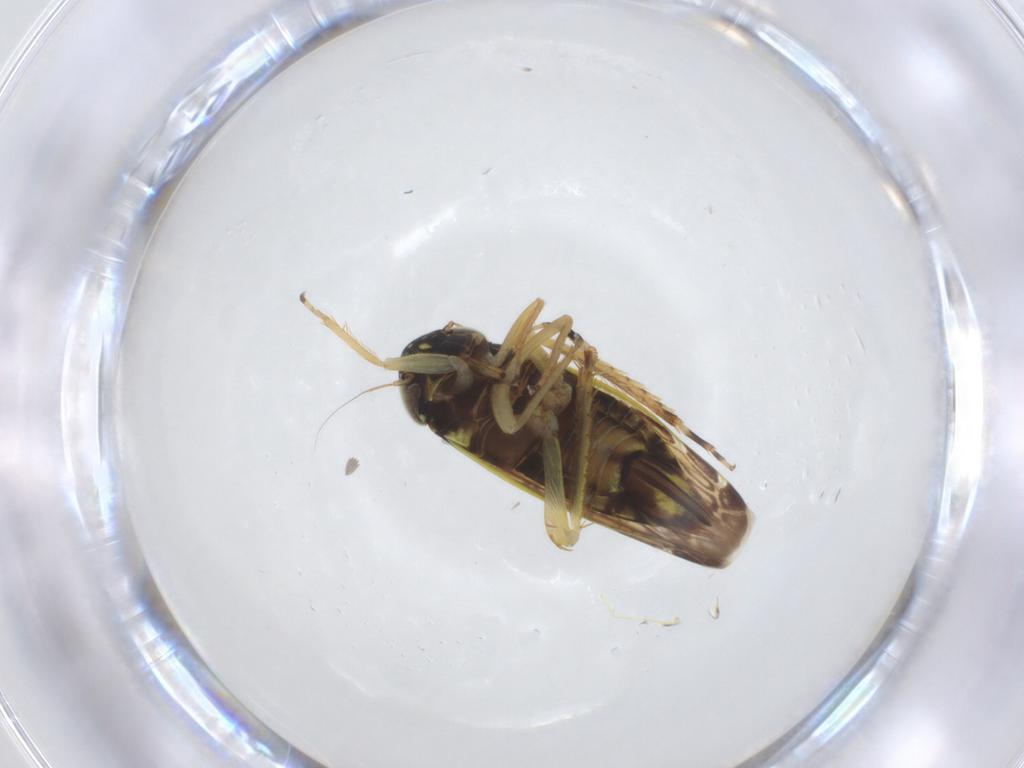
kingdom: Animalia
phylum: Arthropoda
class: Insecta
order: Hemiptera
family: Cicadellidae
